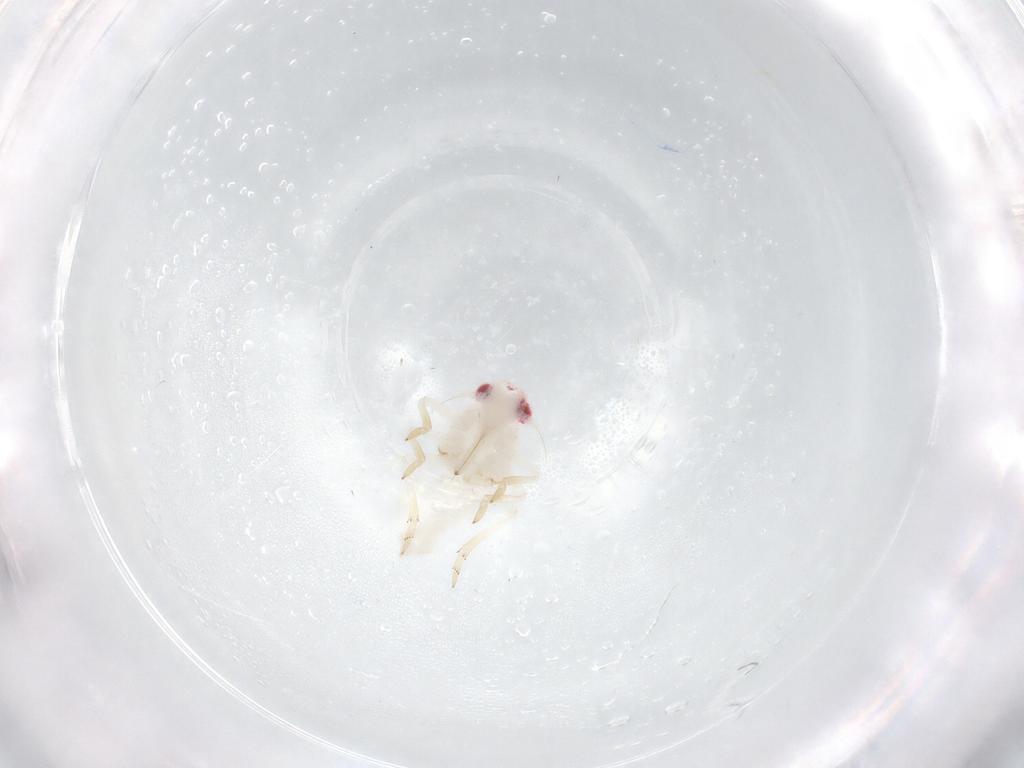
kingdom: Animalia
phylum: Arthropoda
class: Insecta
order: Hemiptera
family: Tropiduchidae
